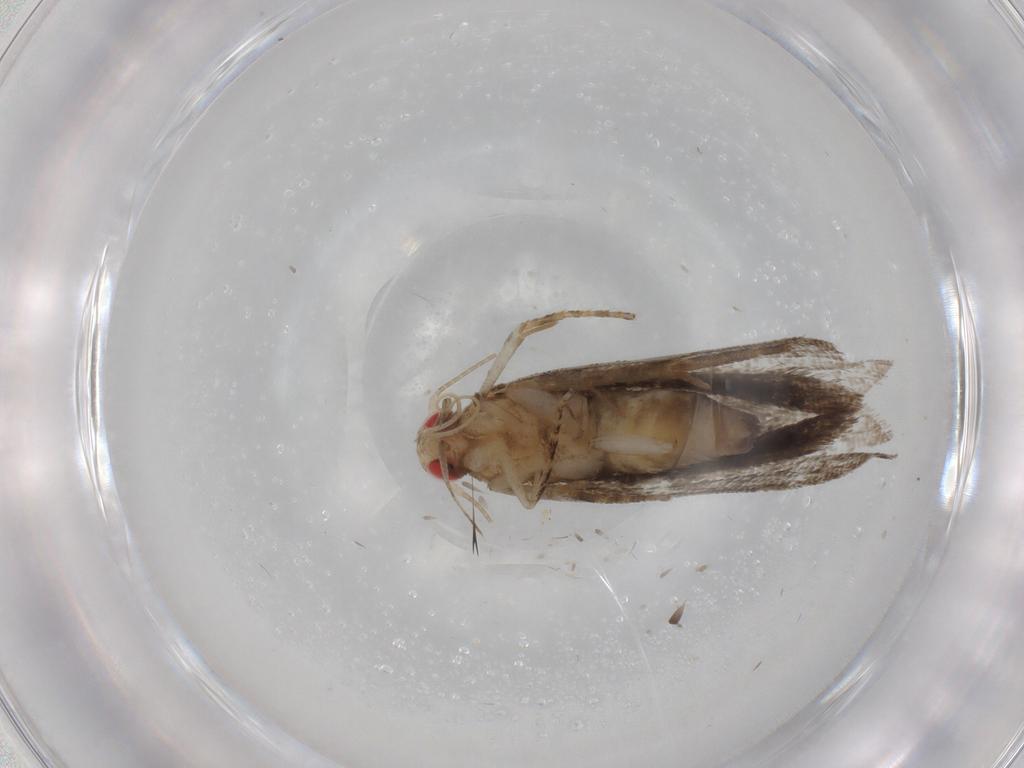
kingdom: Animalia
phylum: Arthropoda
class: Insecta
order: Lepidoptera
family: Gelechiidae
